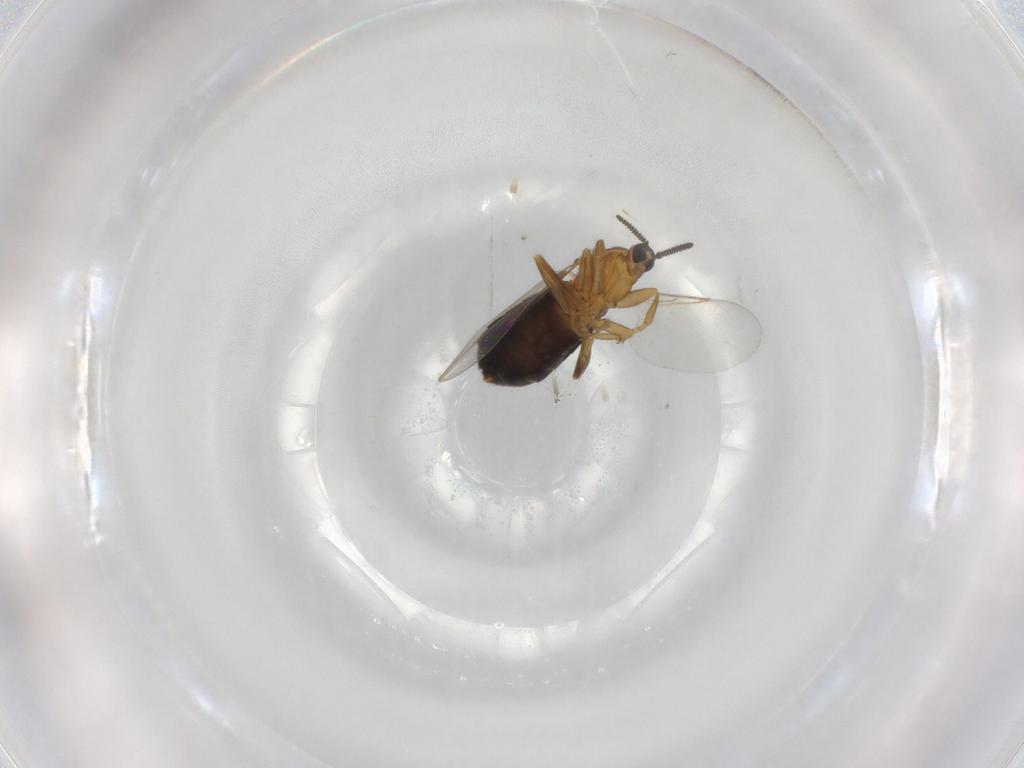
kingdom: Animalia
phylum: Arthropoda
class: Insecta
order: Diptera
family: Scatopsidae
